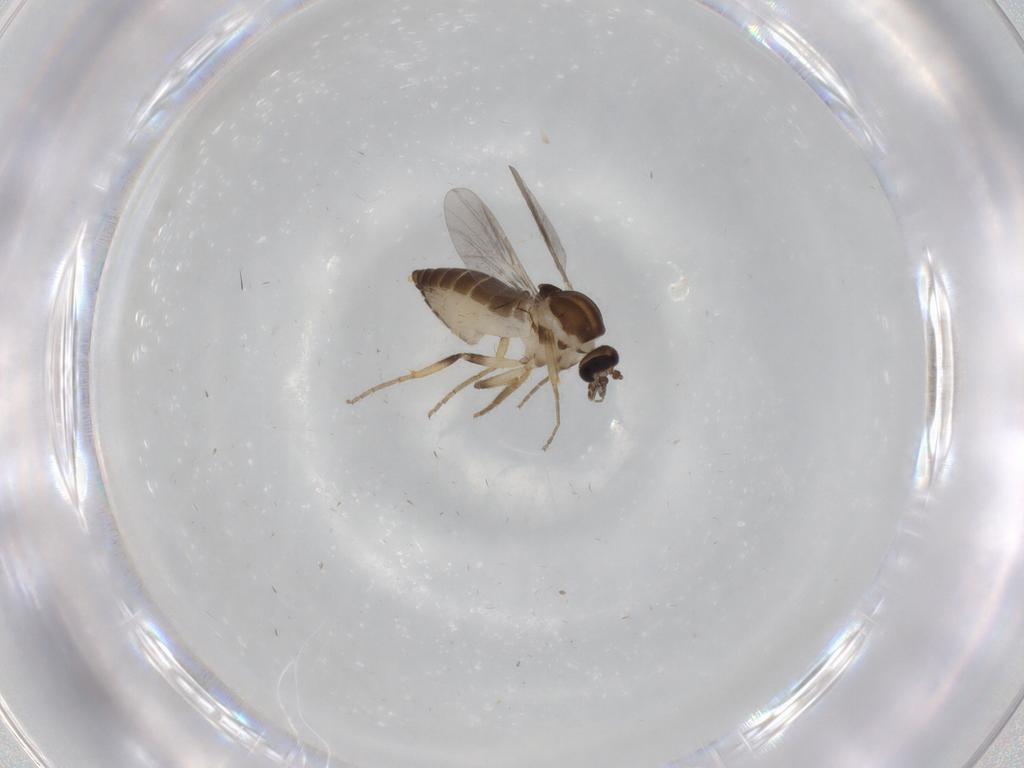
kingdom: Animalia
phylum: Arthropoda
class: Insecta
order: Diptera
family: Ceratopogonidae
